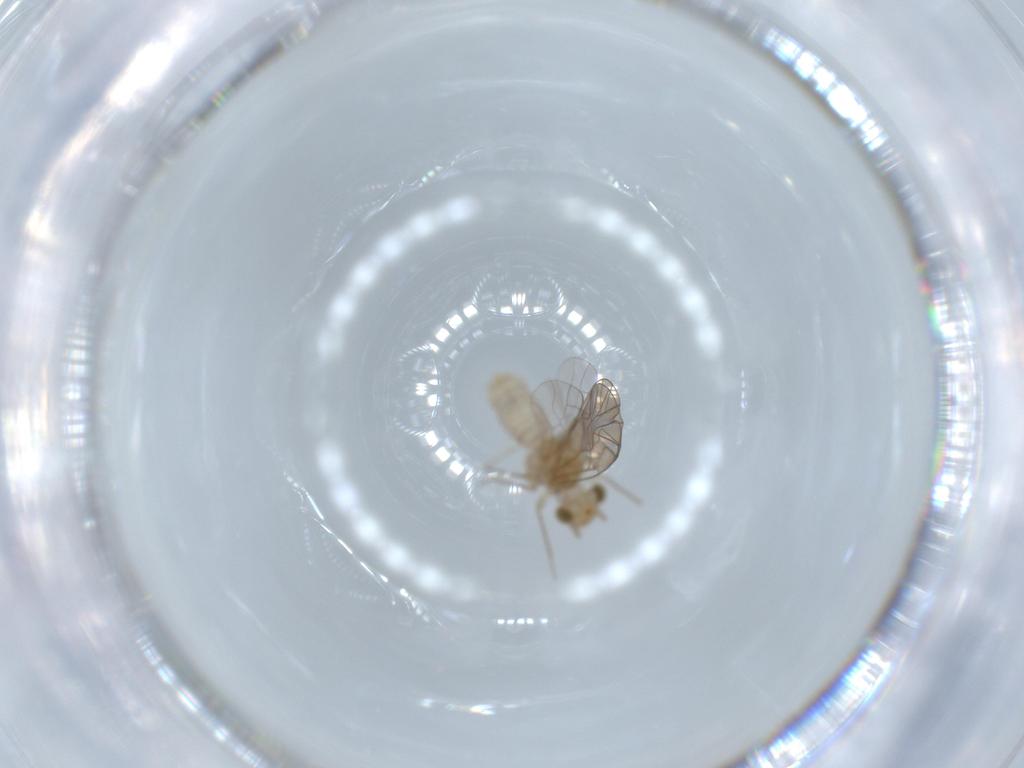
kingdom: Animalia
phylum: Arthropoda
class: Insecta
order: Psocodea
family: Lachesillidae
